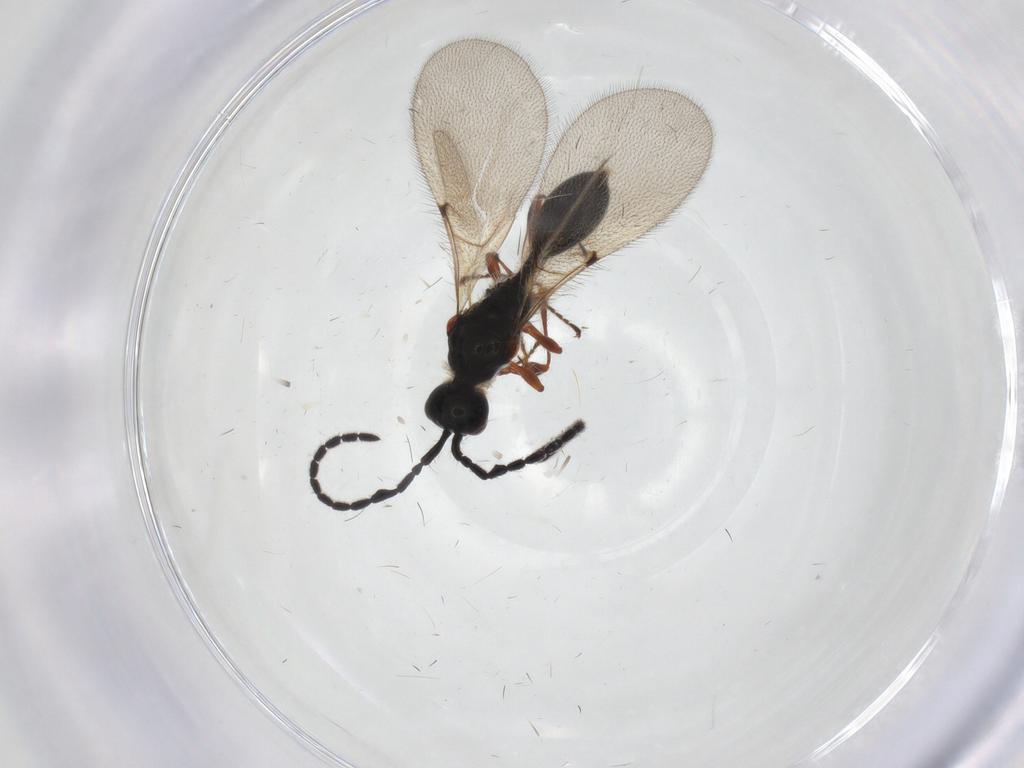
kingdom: Animalia
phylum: Arthropoda
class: Insecta
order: Hymenoptera
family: Diapriidae
